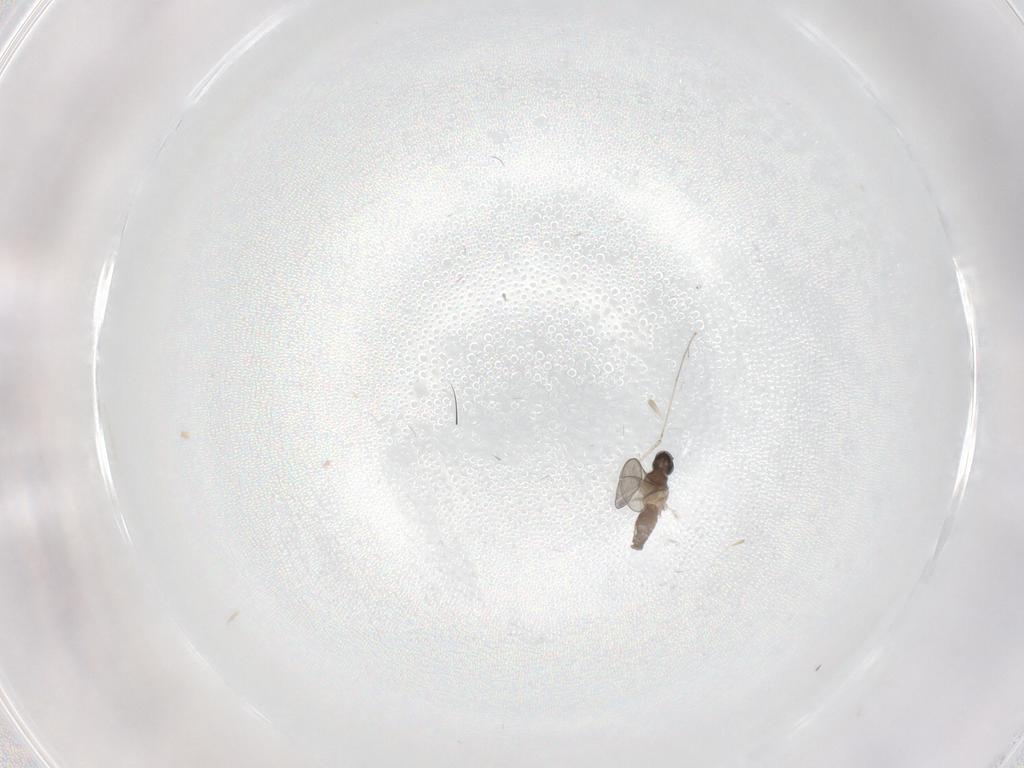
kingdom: Animalia
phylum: Arthropoda
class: Insecta
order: Diptera
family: Cecidomyiidae
